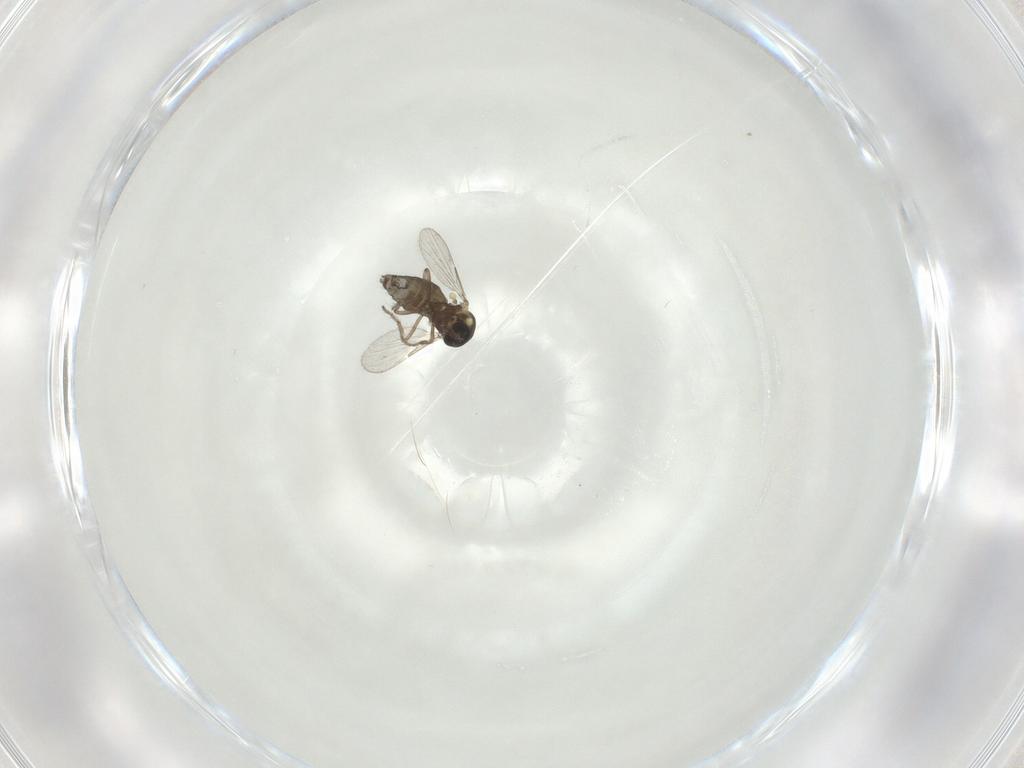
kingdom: Animalia
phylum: Arthropoda
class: Insecta
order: Diptera
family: Ceratopogonidae
